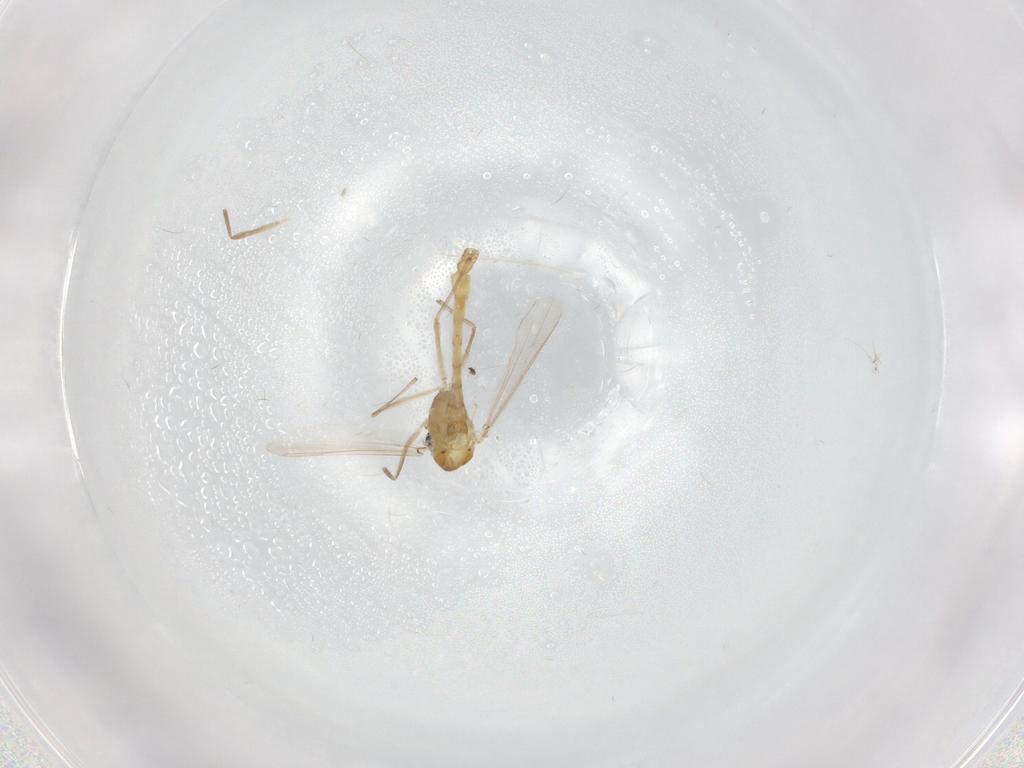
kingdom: Animalia
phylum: Arthropoda
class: Insecta
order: Diptera
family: Chironomidae
